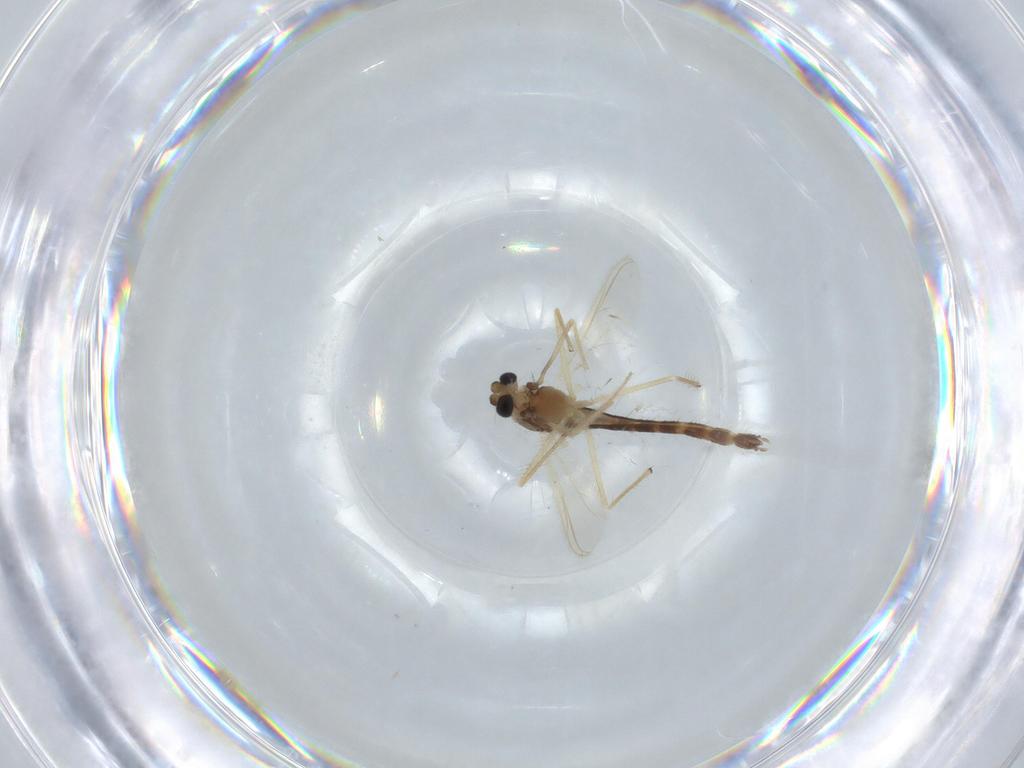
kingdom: Animalia
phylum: Arthropoda
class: Insecta
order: Diptera
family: Chironomidae
